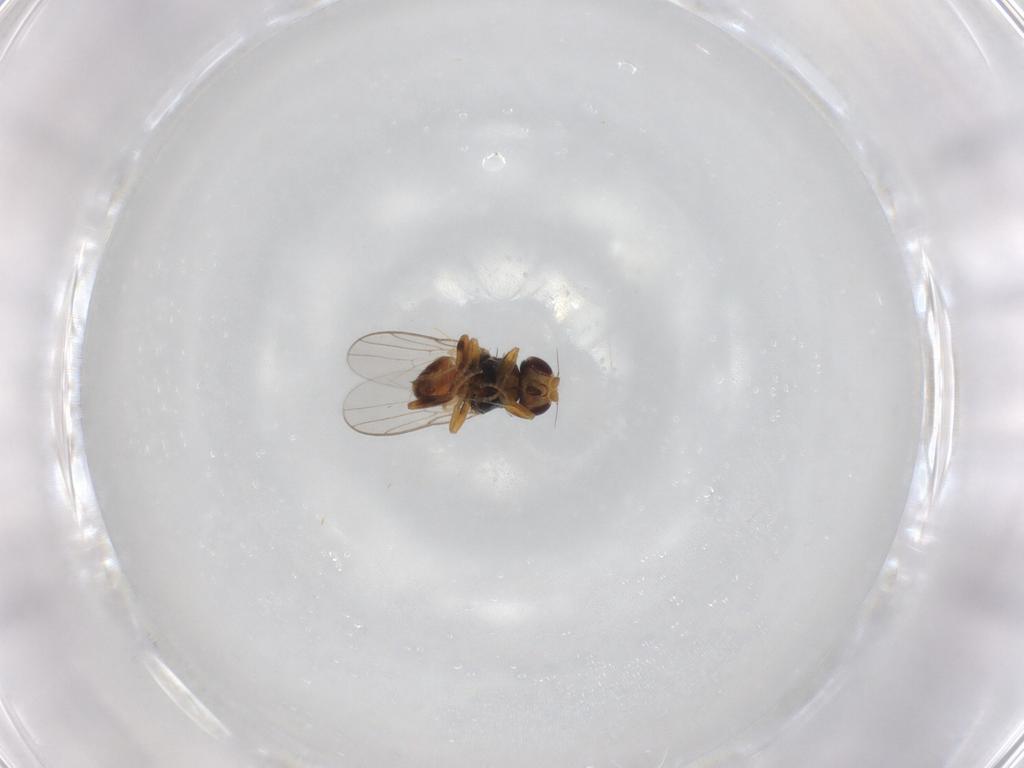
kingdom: Animalia
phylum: Arthropoda
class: Insecta
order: Diptera
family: Chloropidae
